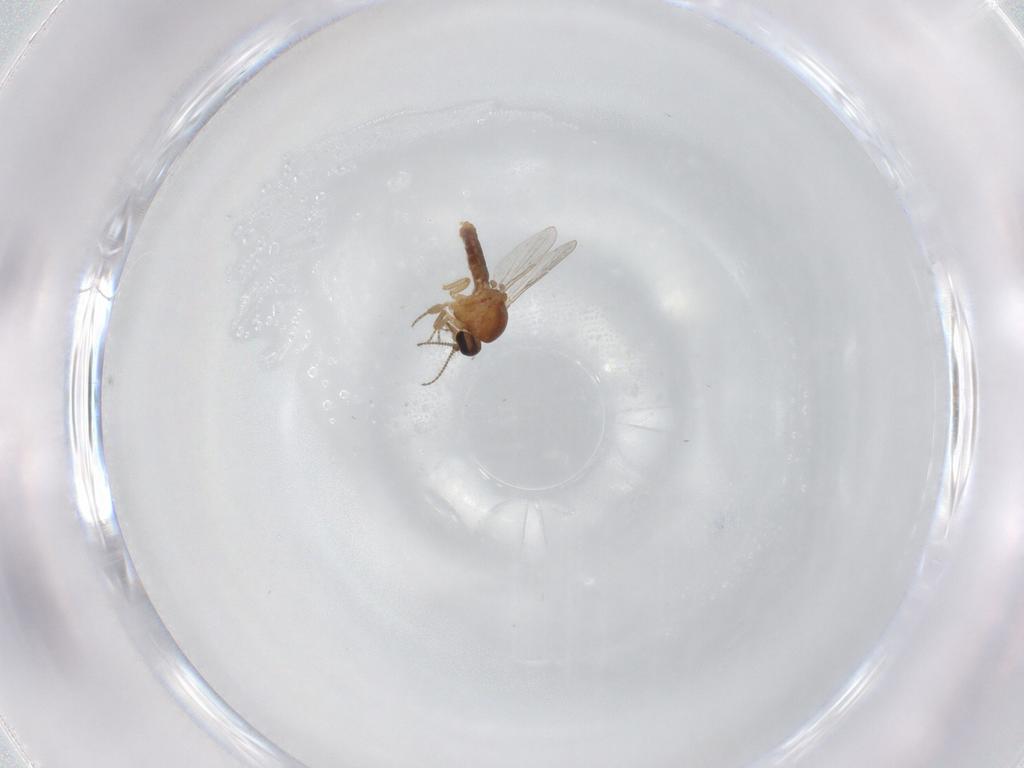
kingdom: Animalia
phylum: Arthropoda
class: Insecta
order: Diptera
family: Ceratopogonidae
